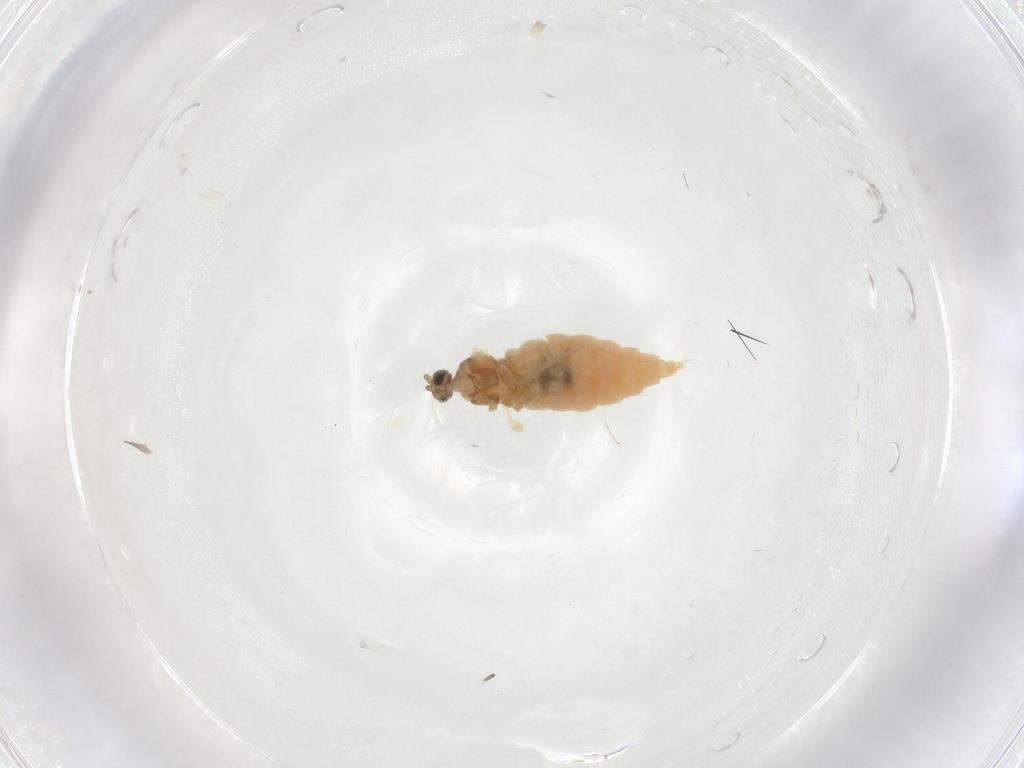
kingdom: Animalia
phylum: Arthropoda
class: Insecta
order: Diptera
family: Cecidomyiidae
